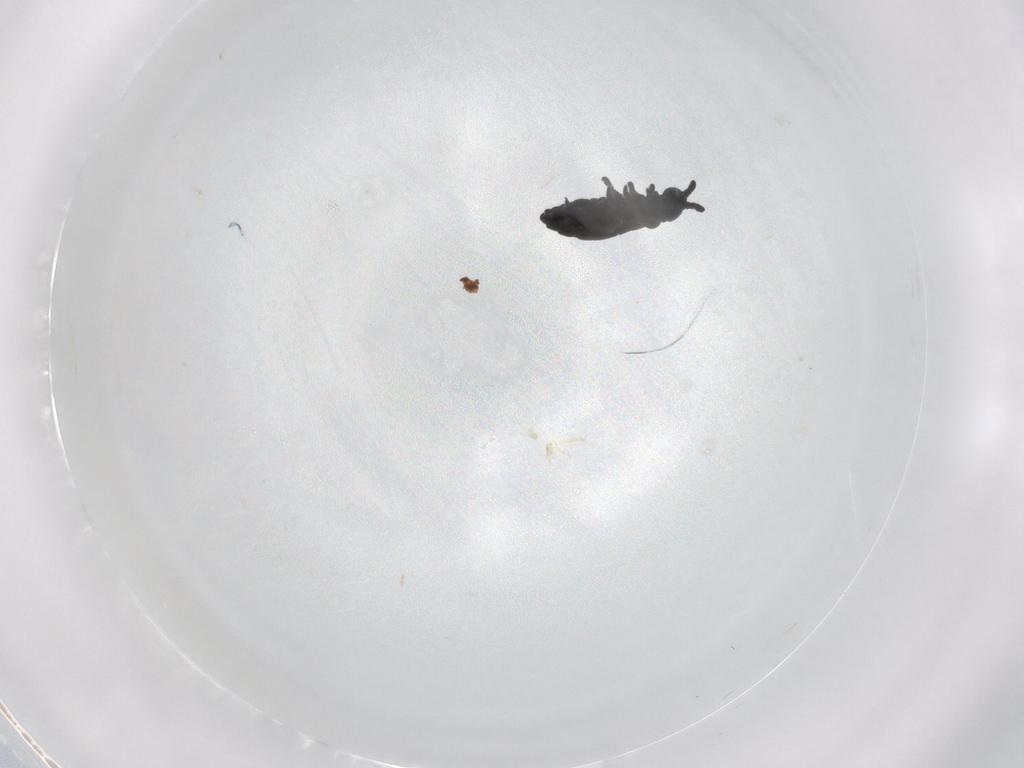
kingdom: Animalia
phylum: Arthropoda
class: Collembola
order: Poduromorpha
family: Hypogastruridae
